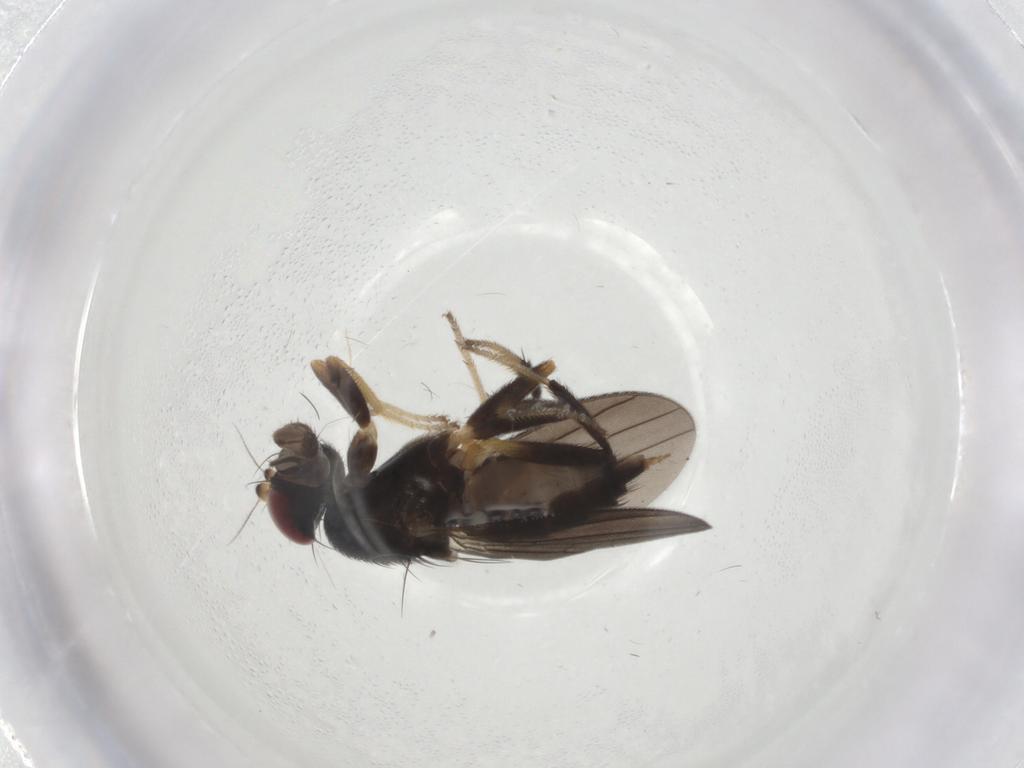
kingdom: Animalia
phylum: Arthropoda
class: Insecta
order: Diptera
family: Clusiidae
